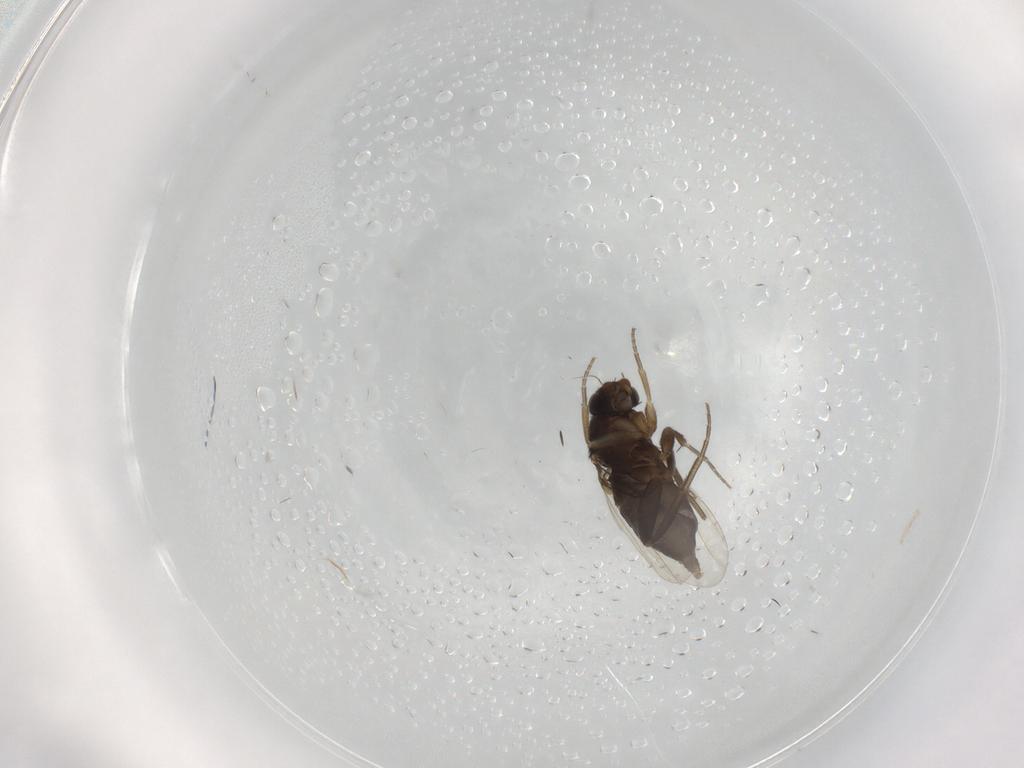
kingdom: Animalia
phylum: Arthropoda
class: Insecta
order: Diptera
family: Phoridae
